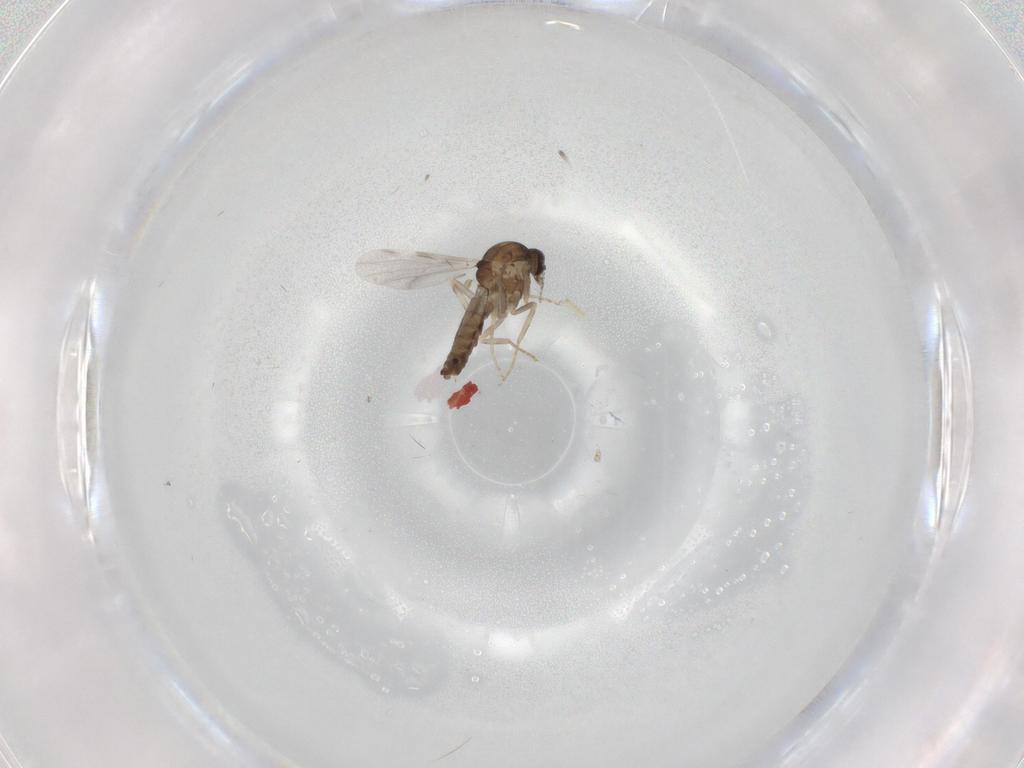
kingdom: Animalia
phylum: Arthropoda
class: Insecta
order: Diptera
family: Ceratopogonidae
